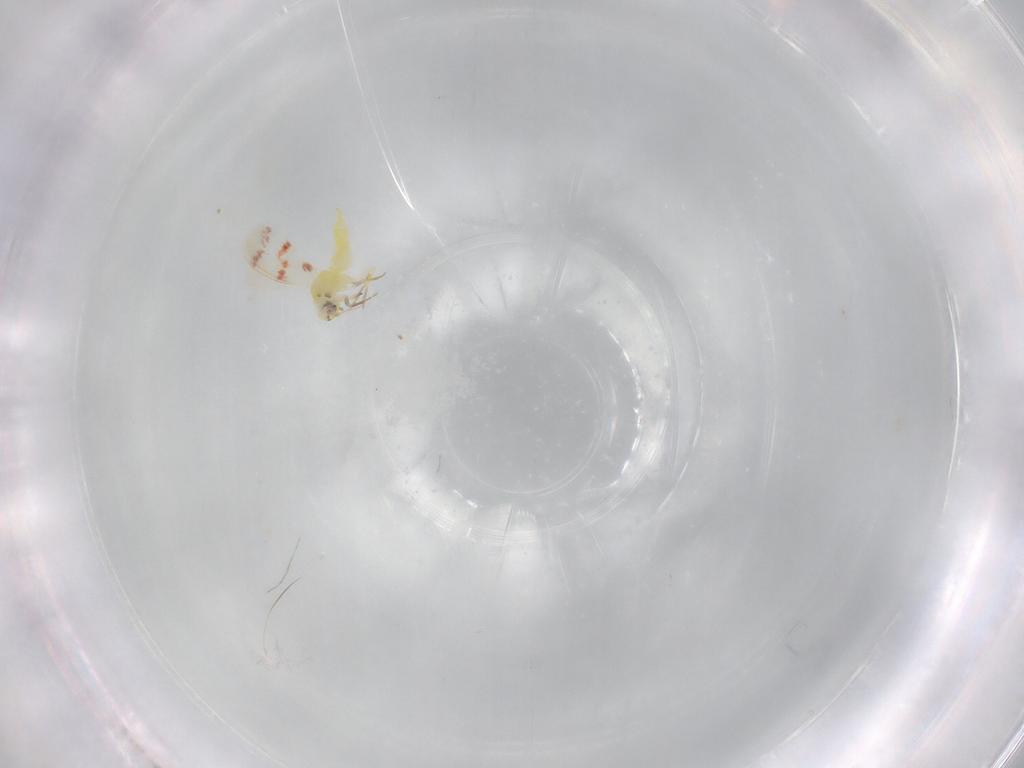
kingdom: Animalia
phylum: Arthropoda
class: Insecta
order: Hemiptera
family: Aleyrodidae
